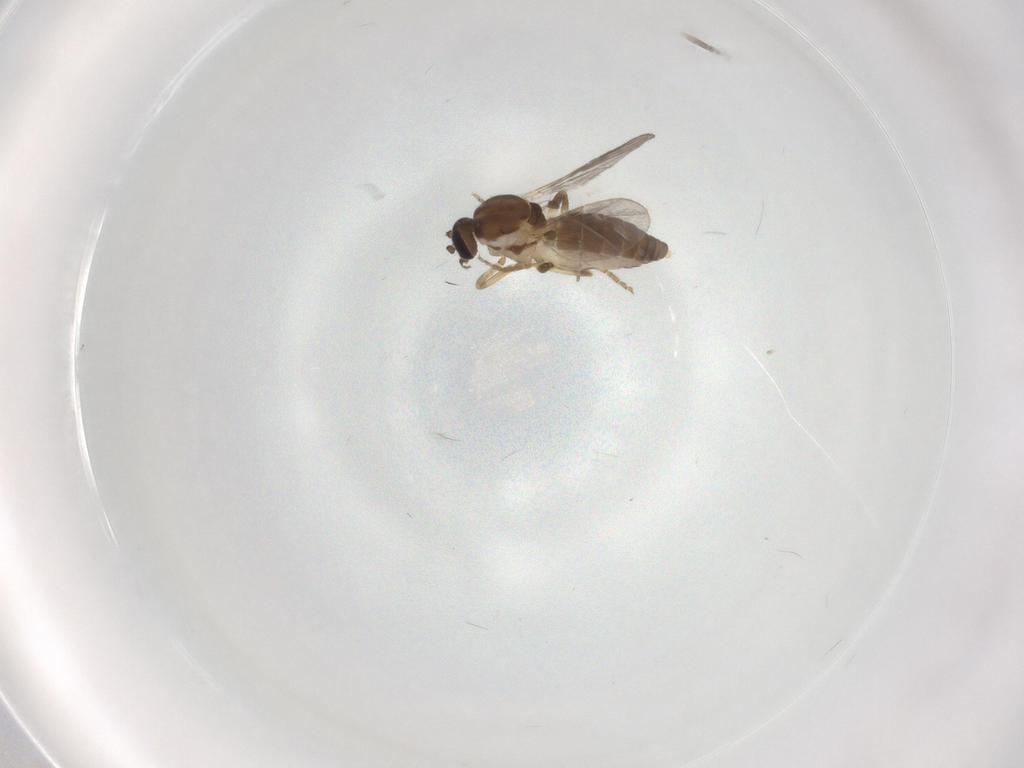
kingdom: Animalia
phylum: Arthropoda
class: Insecta
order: Diptera
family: Ceratopogonidae
